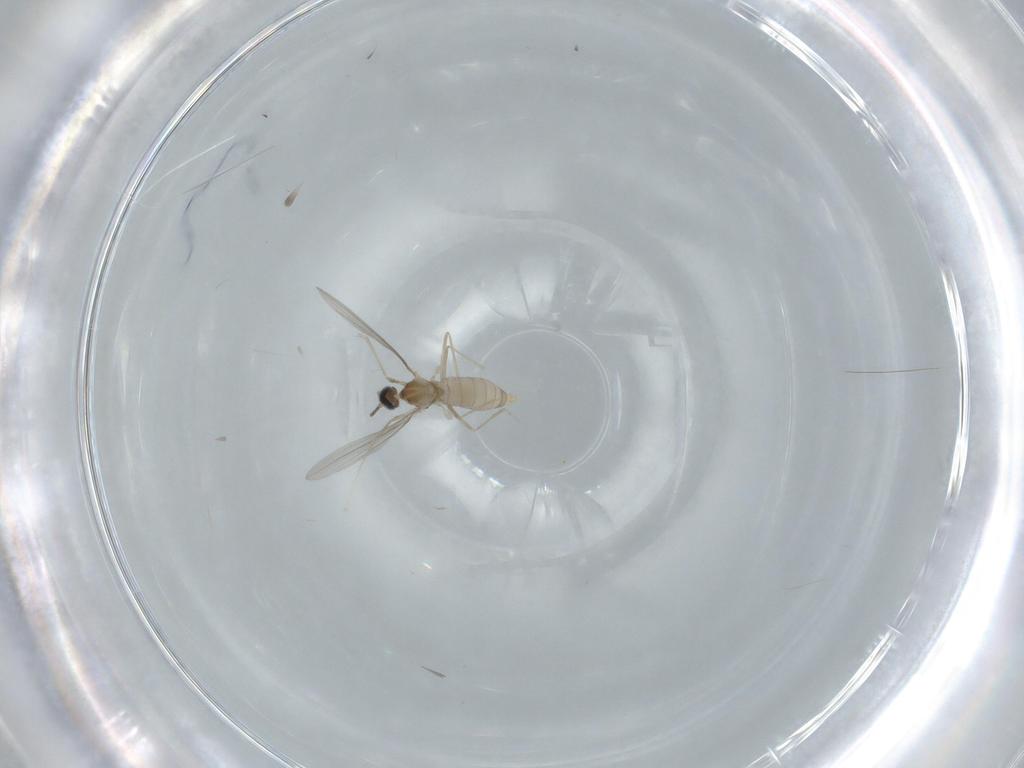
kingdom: Animalia
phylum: Arthropoda
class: Insecta
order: Diptera
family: Cecidomyiidae
